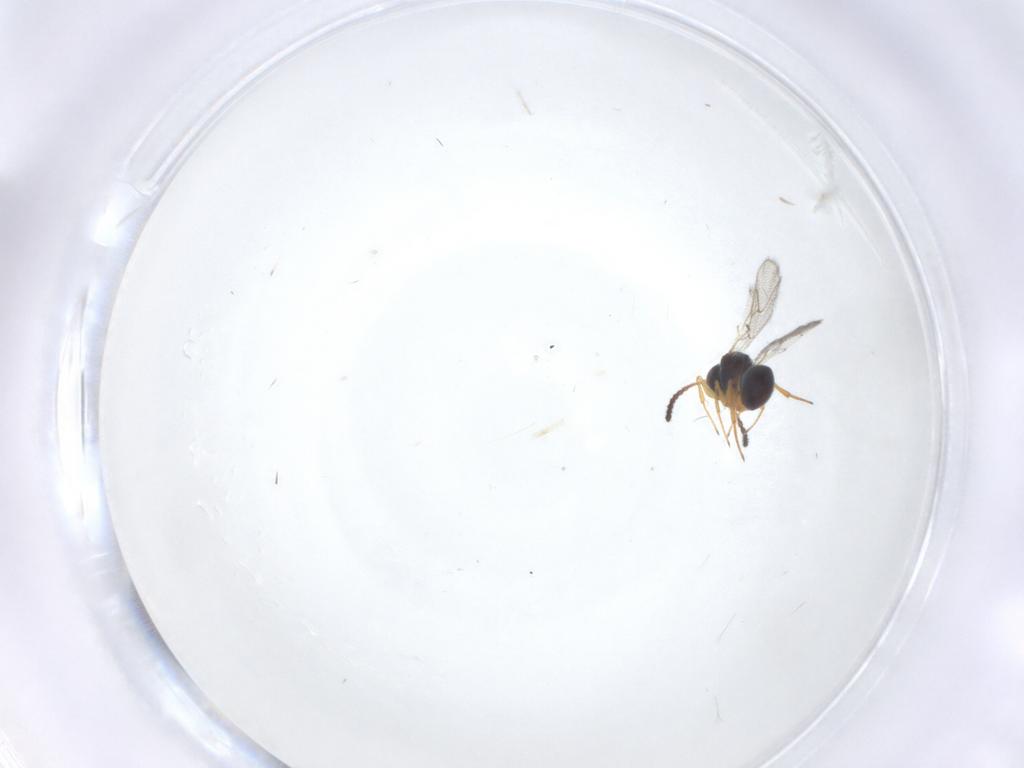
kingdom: Animalia
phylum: Arthropoda
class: Insecta
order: Hymenoptera
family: Figitidae
